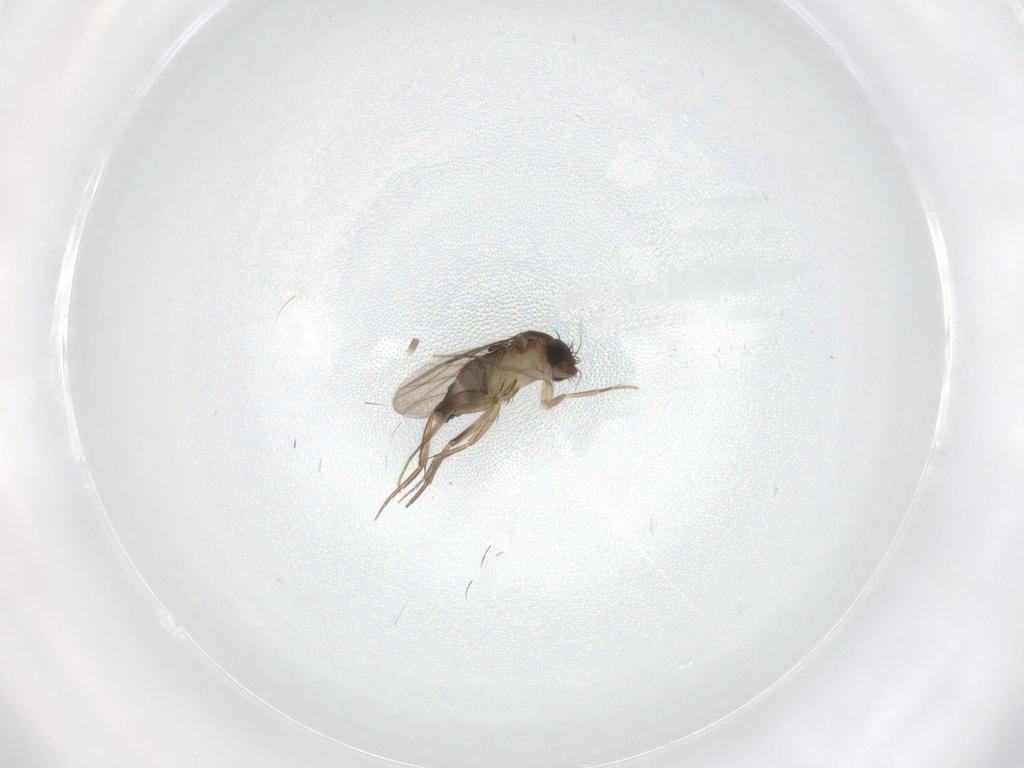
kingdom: Animalia
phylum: Arthropoda
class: Insecta
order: Diptera
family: Phoridae
